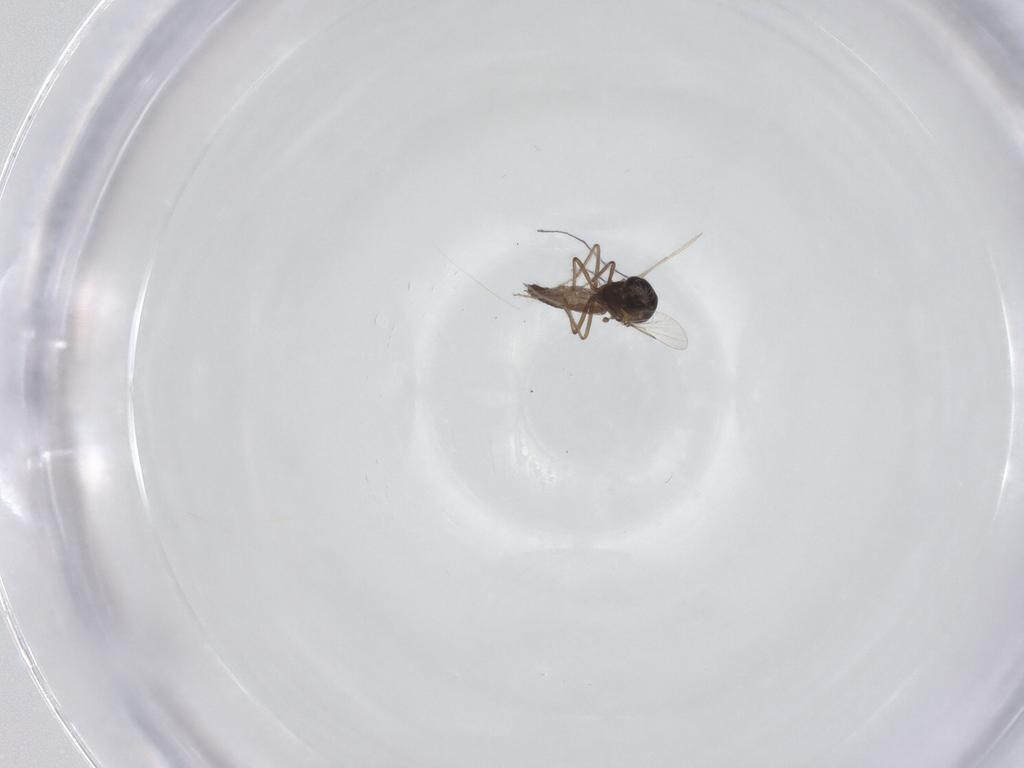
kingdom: Animalia
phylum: Arthropoda
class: Insecta
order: Diptera
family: Ceratopogonidae
